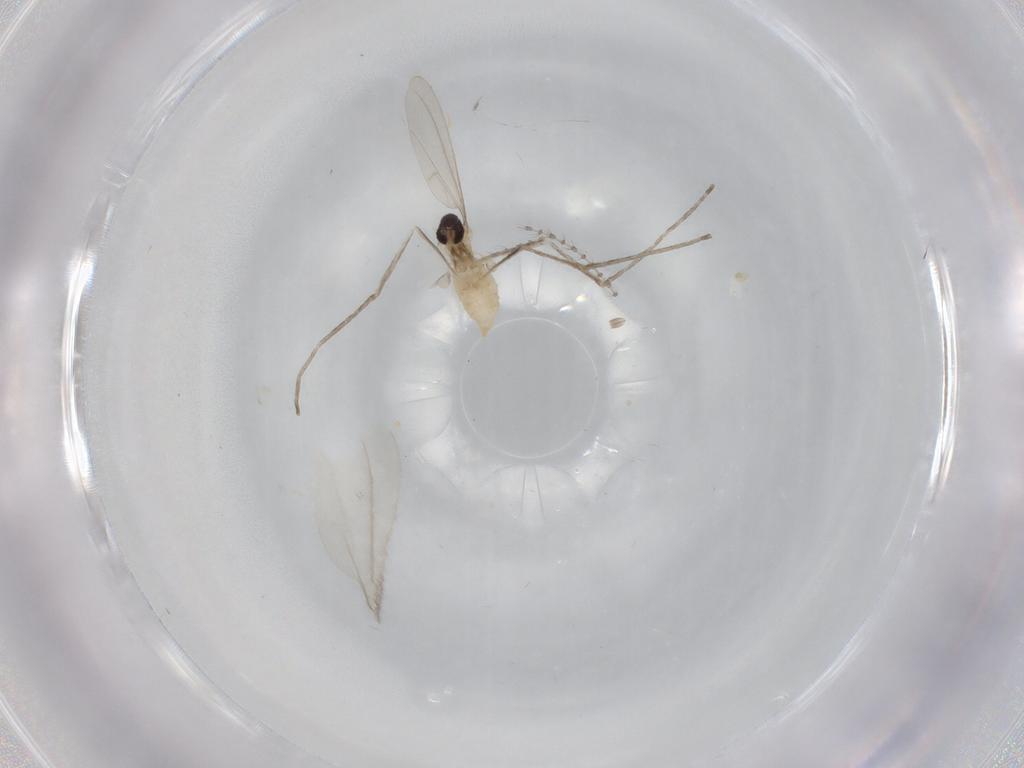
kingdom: Animalia
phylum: Arthropoda
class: Insecta
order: Diptera
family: Cecidomyiidae
